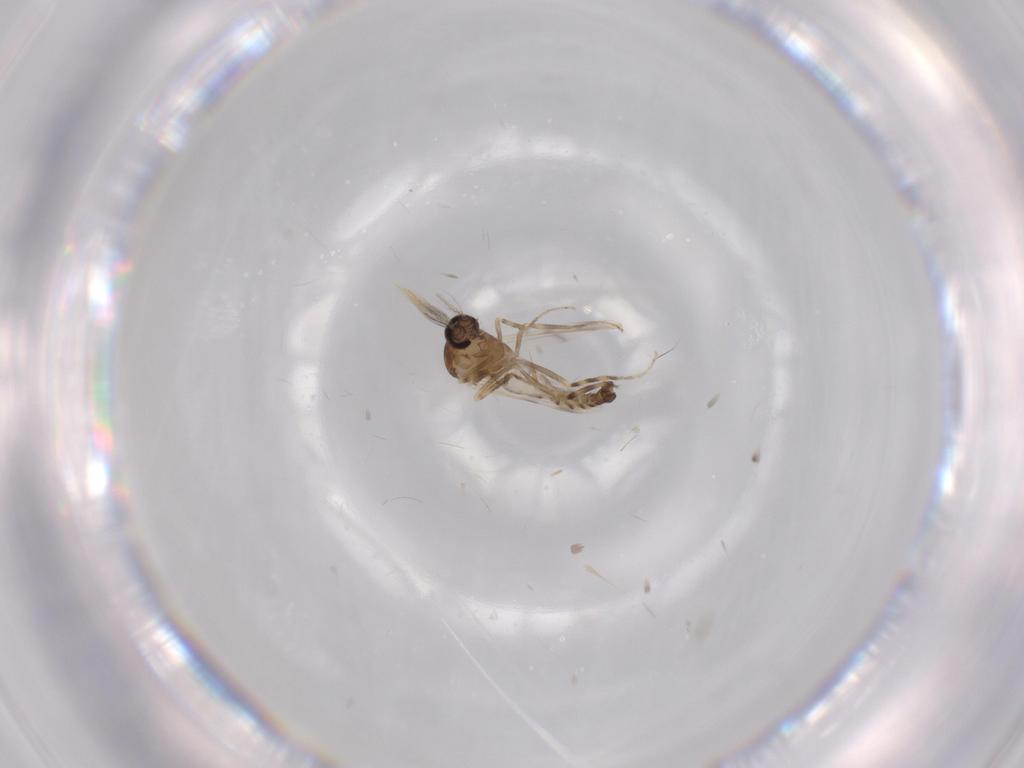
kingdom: Animalia
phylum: Arthropoda
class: Insecta
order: Diptera
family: Ceratopogonidae
